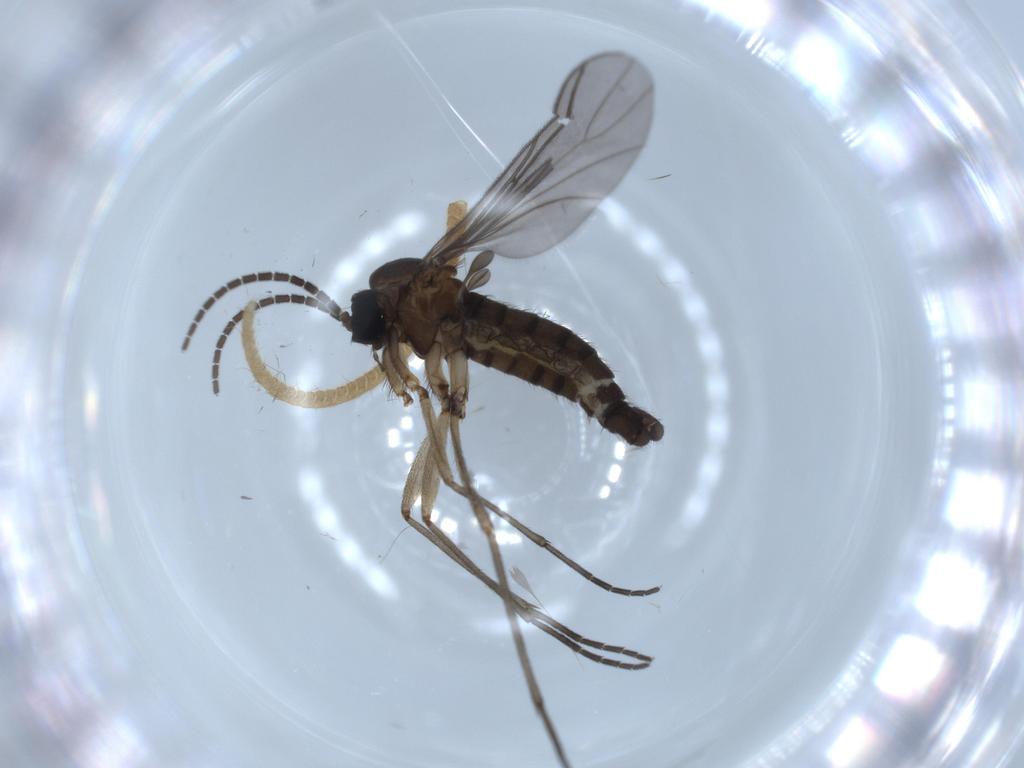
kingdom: Animalia
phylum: Arthropoda
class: Insecta
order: Diptera
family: Sciaridae
